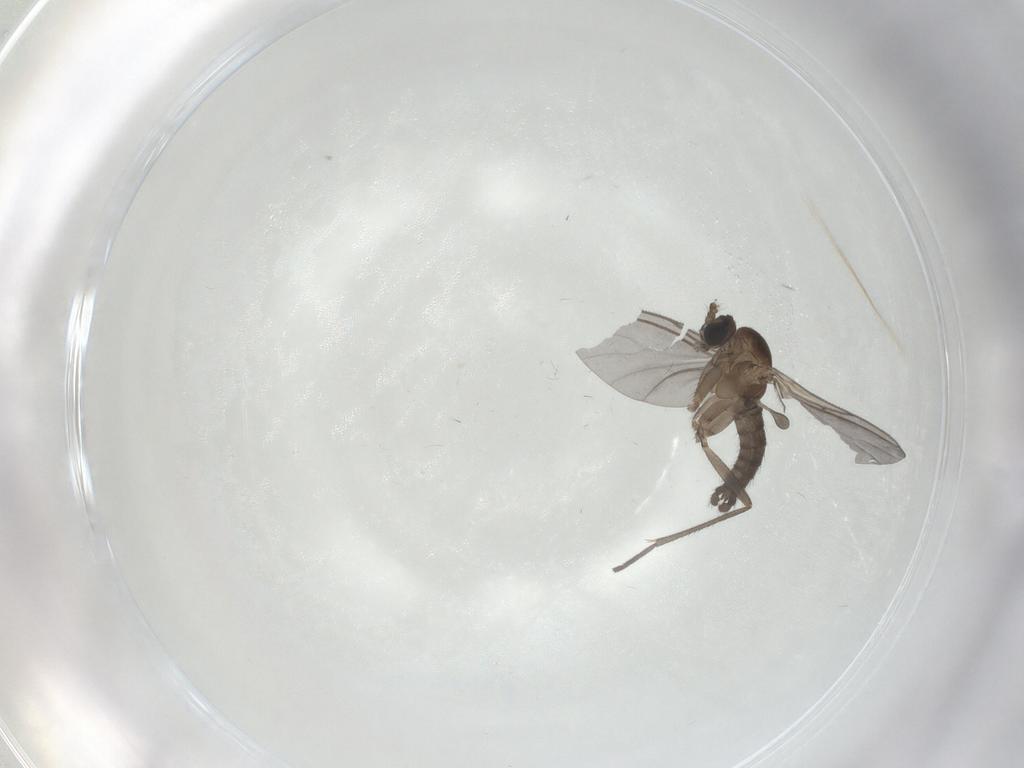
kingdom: Animalia
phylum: Arthropoda
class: Insecta
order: Diptera
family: Sciaridae
